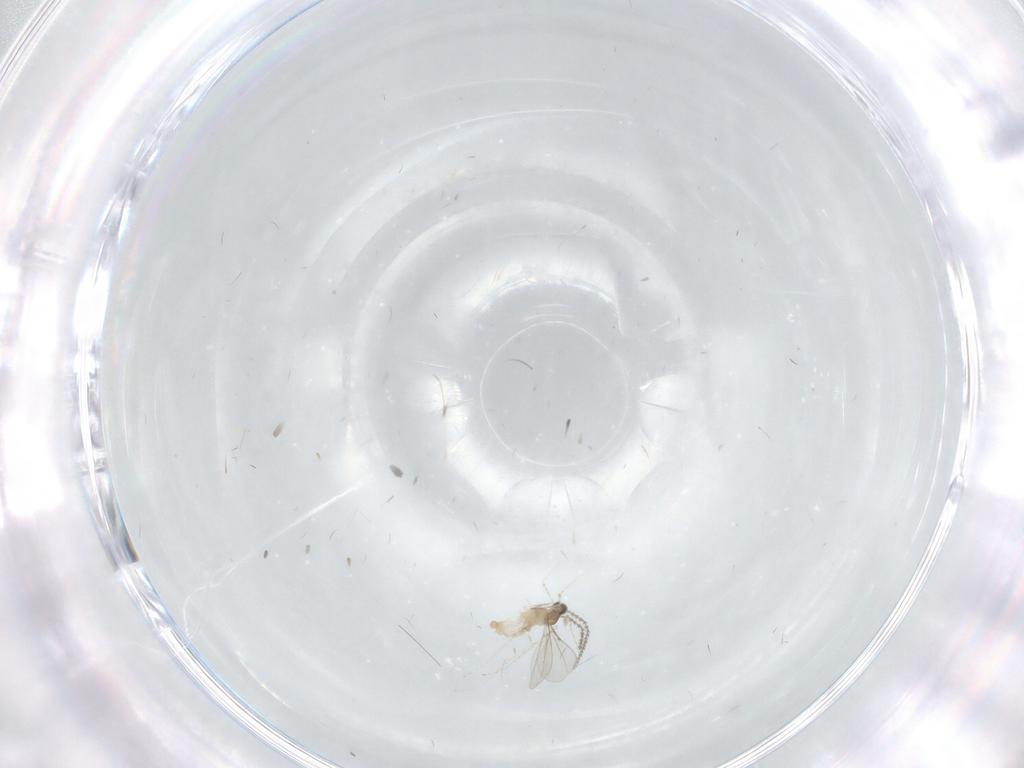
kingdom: Animalia
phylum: Arthropoda
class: Insecta
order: Diptera
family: Cecidomyiidae
